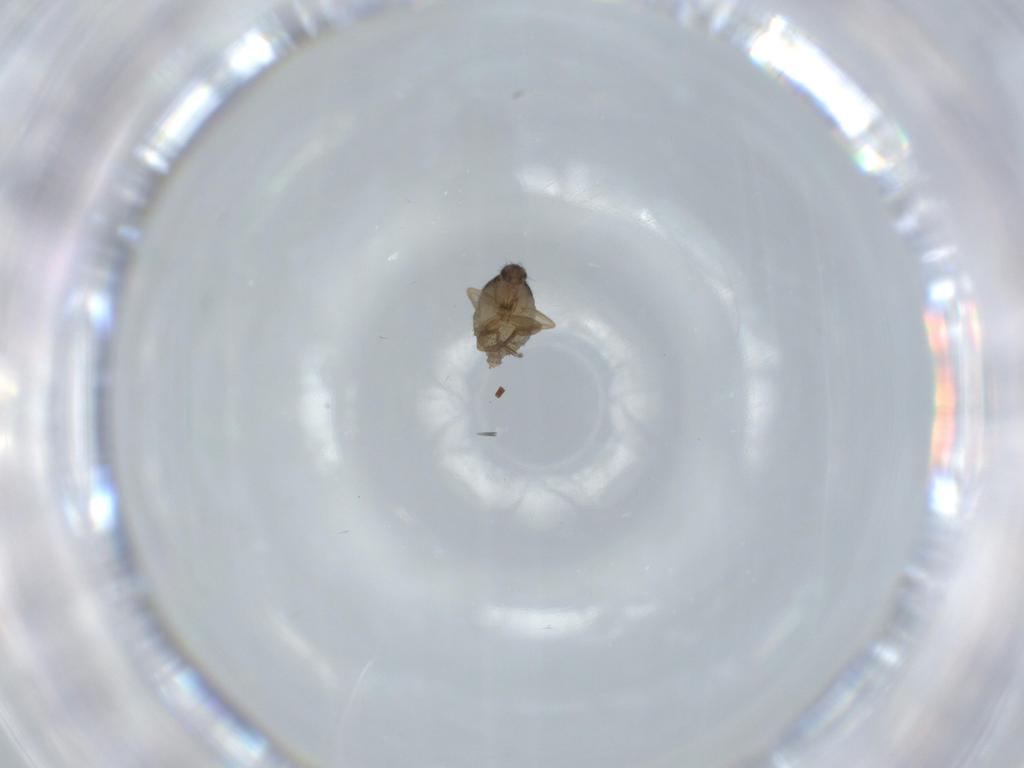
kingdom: Animalia
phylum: Arthropoda
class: Insecta
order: Diptera
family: Phoridae
